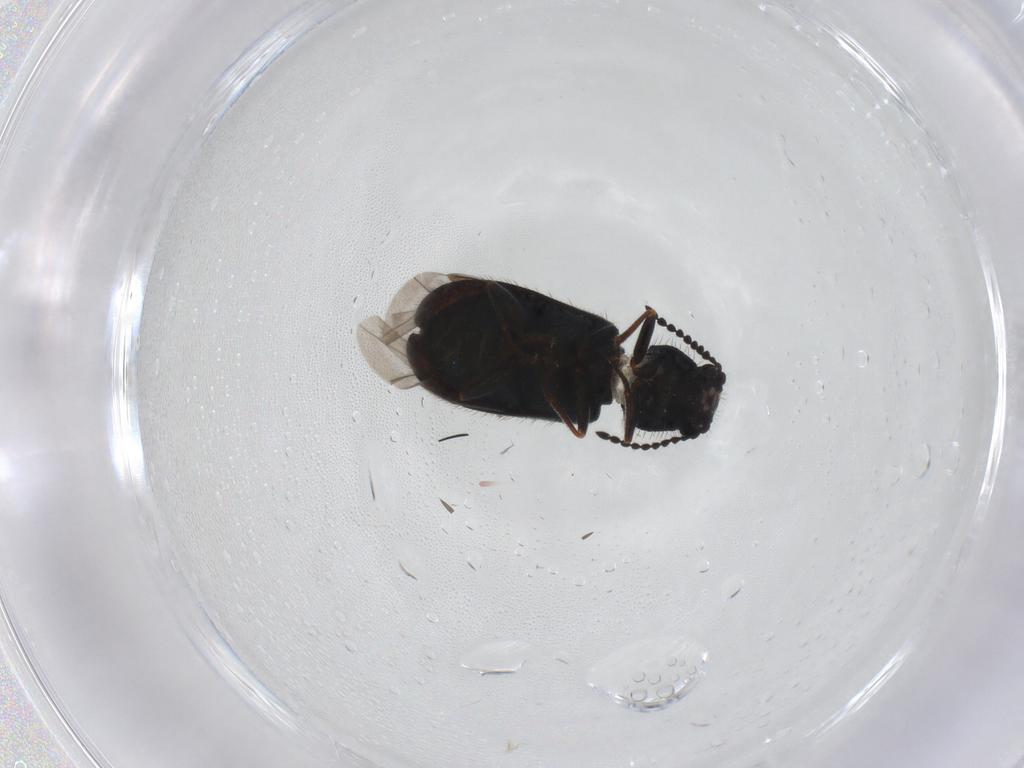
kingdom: Animalia
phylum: Arthropoda
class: Insecta
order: Coleoptera
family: Melyridae
